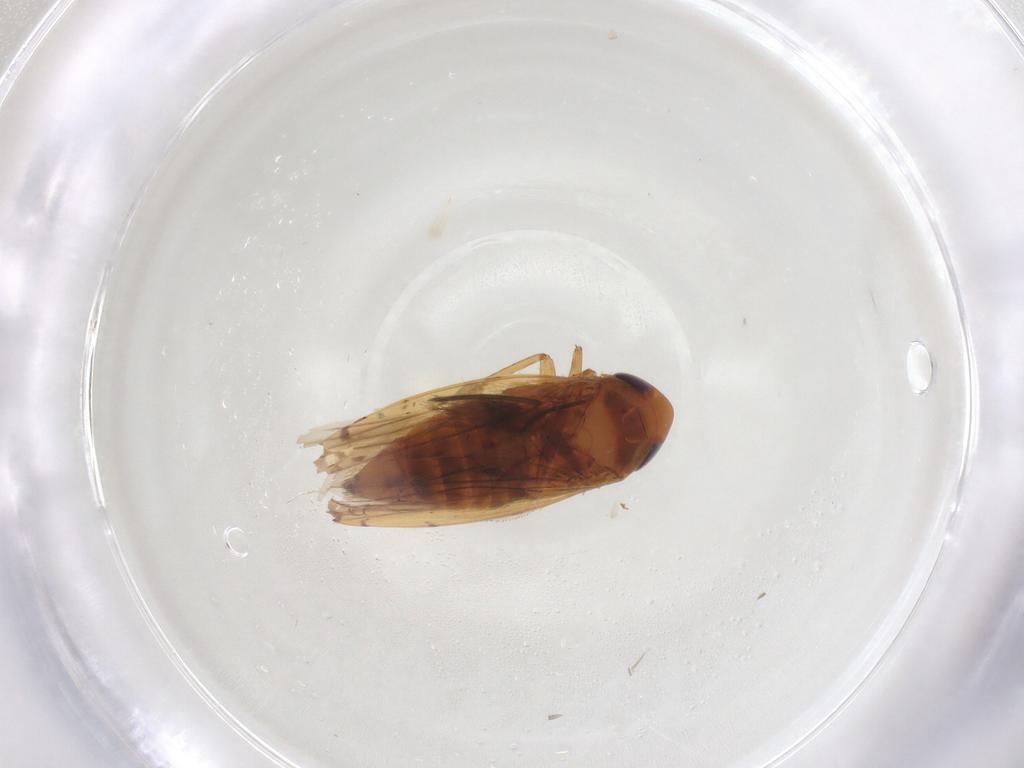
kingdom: Animalia
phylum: Arthropoda
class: Insecta
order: Hemiptera
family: Cicadellidae
